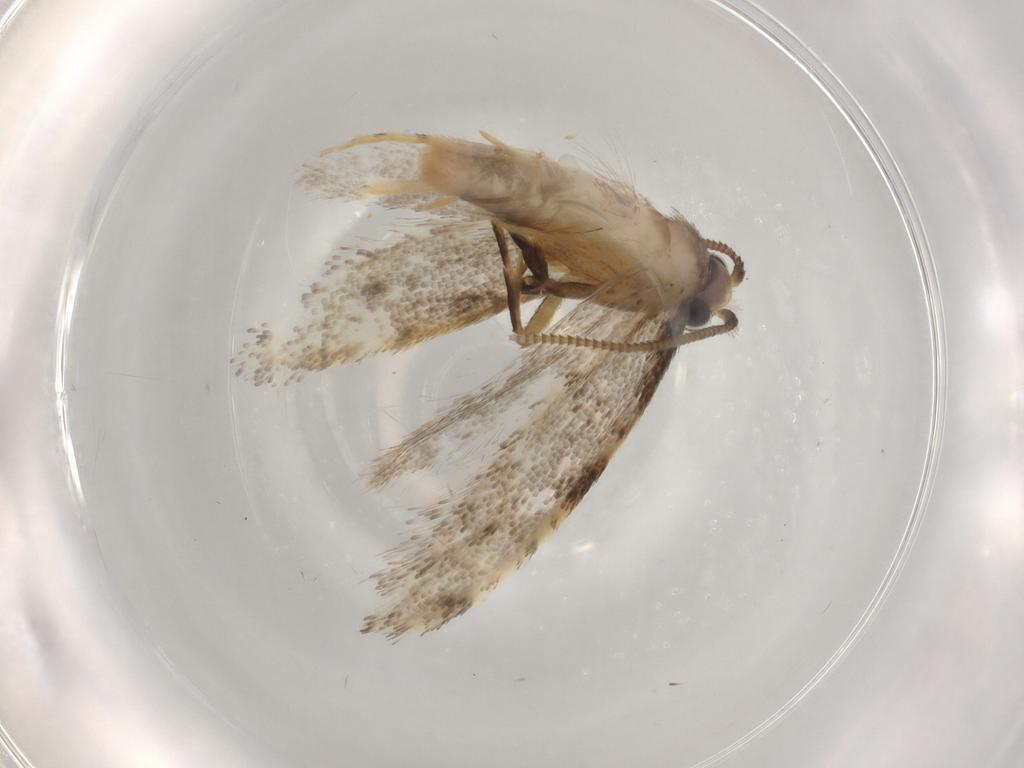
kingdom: Animalia
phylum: Arthropoda
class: Insecta
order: Lepidoptera
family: Tineidae
